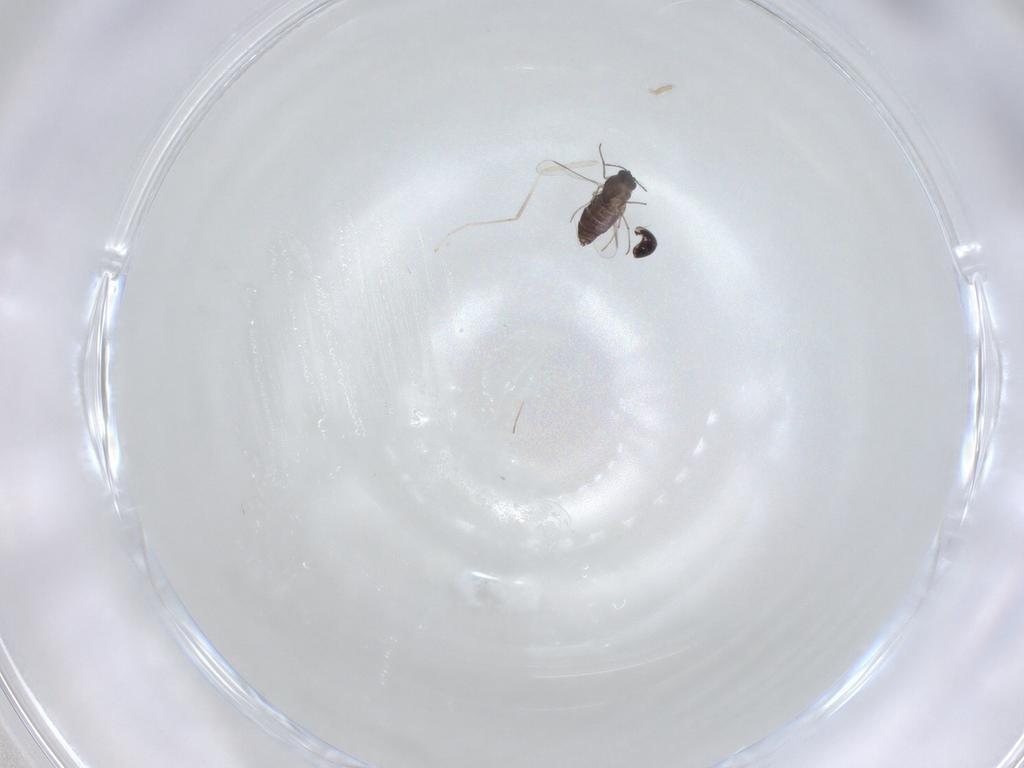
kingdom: Animalia
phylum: Arthropoda
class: Insecta
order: Diptera
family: Chironomidae
